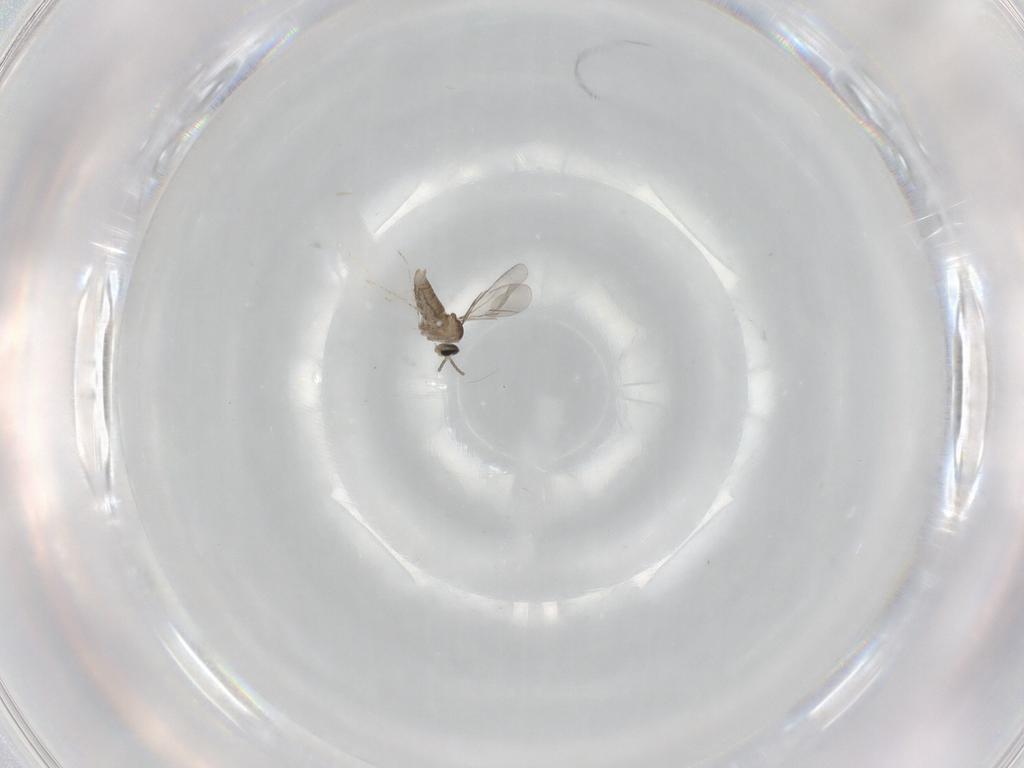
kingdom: Animalia
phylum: Arthropoda
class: Insecta
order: Diptera
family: Cecidomyiidae
